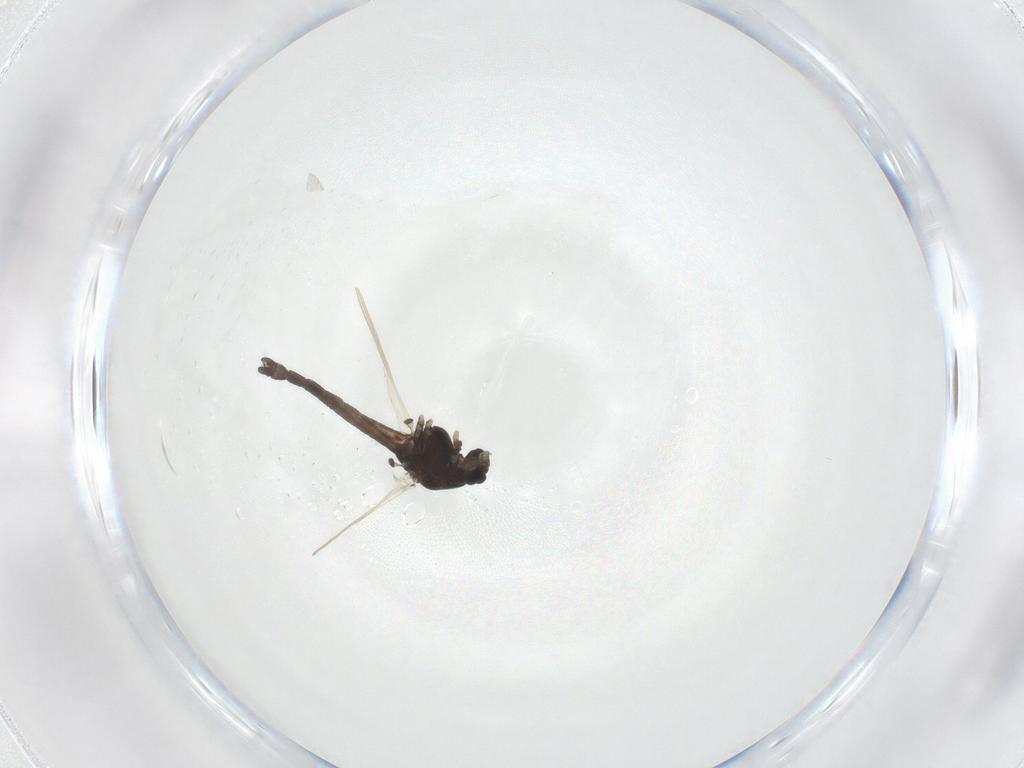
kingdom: Animalia
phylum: Arthropoda
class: Insecta
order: Diptera
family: Chironomidae
